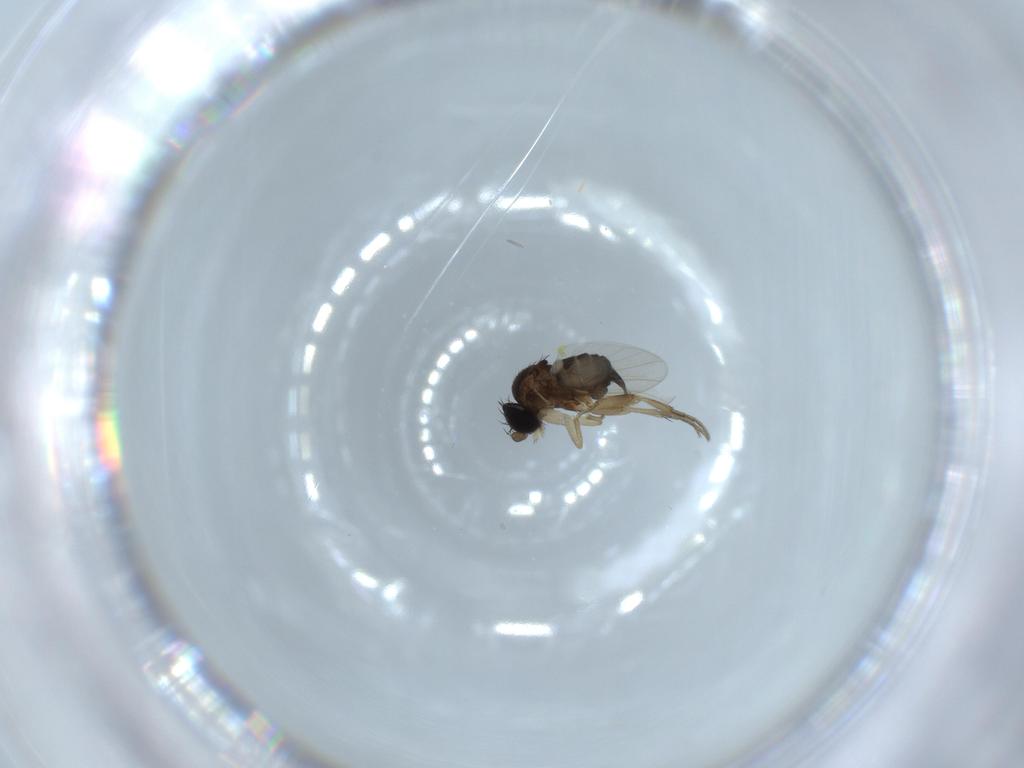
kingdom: Animalia
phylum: Arthropoda
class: Insecta
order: Diptera
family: Phoridae
